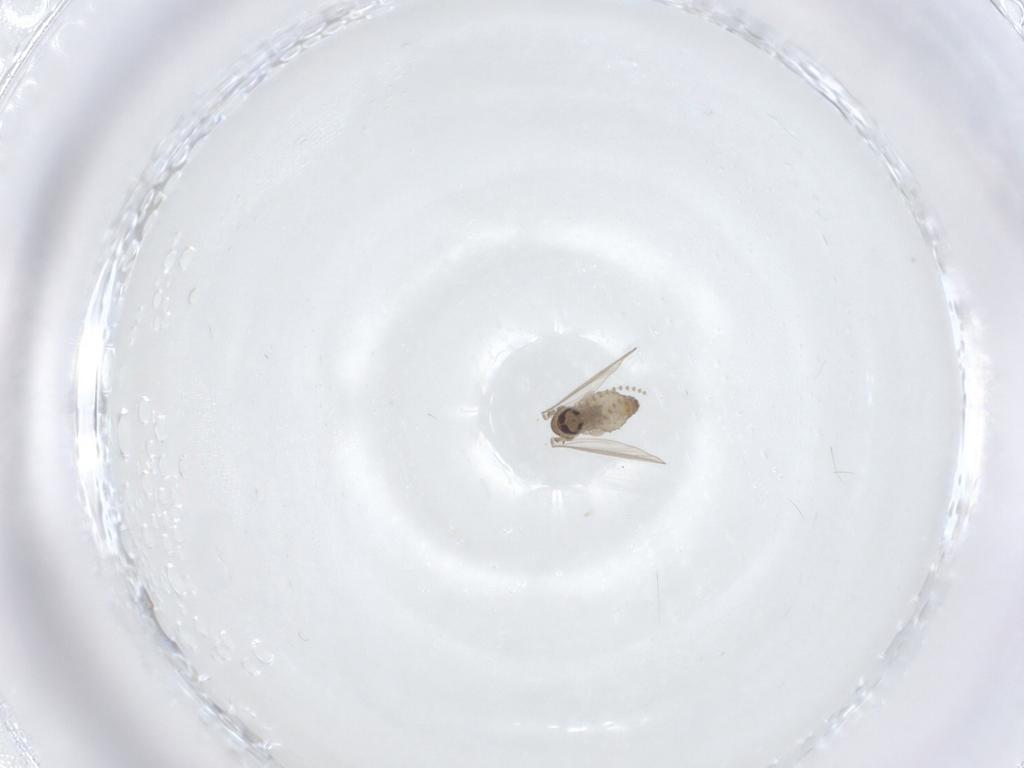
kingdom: Animalia
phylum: Arthropoda
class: Insecta
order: Diptera
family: Psychodidae
